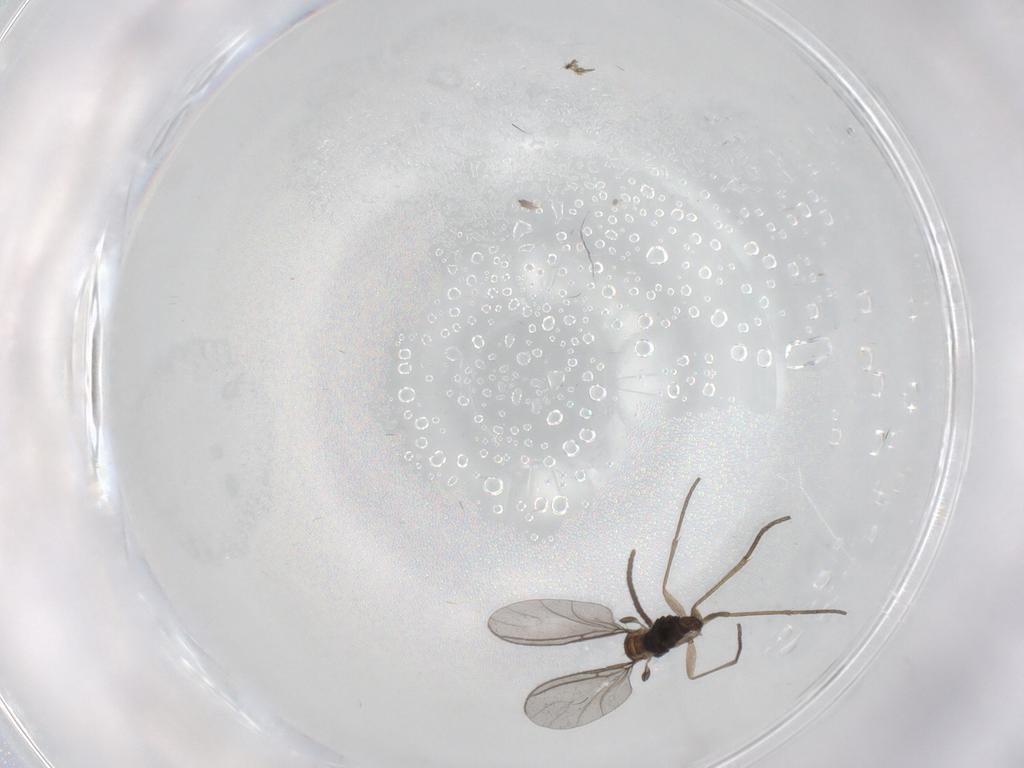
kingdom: Animalia
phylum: Arthropoda
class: Insecta
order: Diptera
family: Sciaridae
